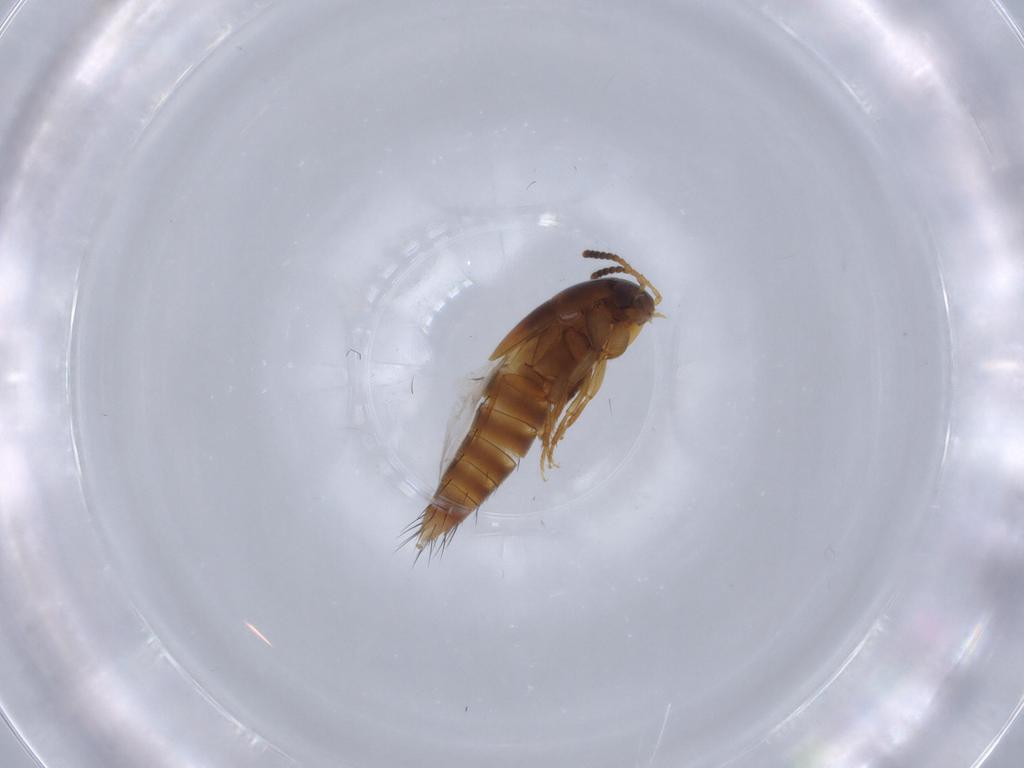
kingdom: Animalia
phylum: Arthropoda
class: Insecta
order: Coleoptera
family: Staphylinidae
